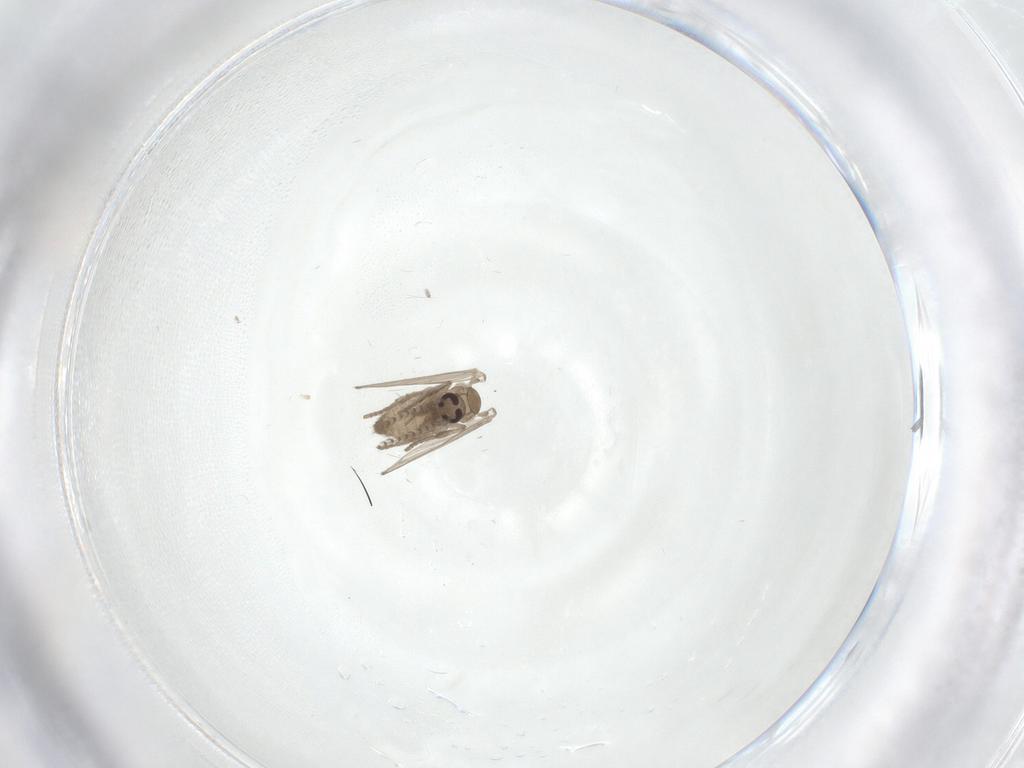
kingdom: Animalia
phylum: Arthropoda
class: Insecta
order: Diptera
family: Psychodidae
